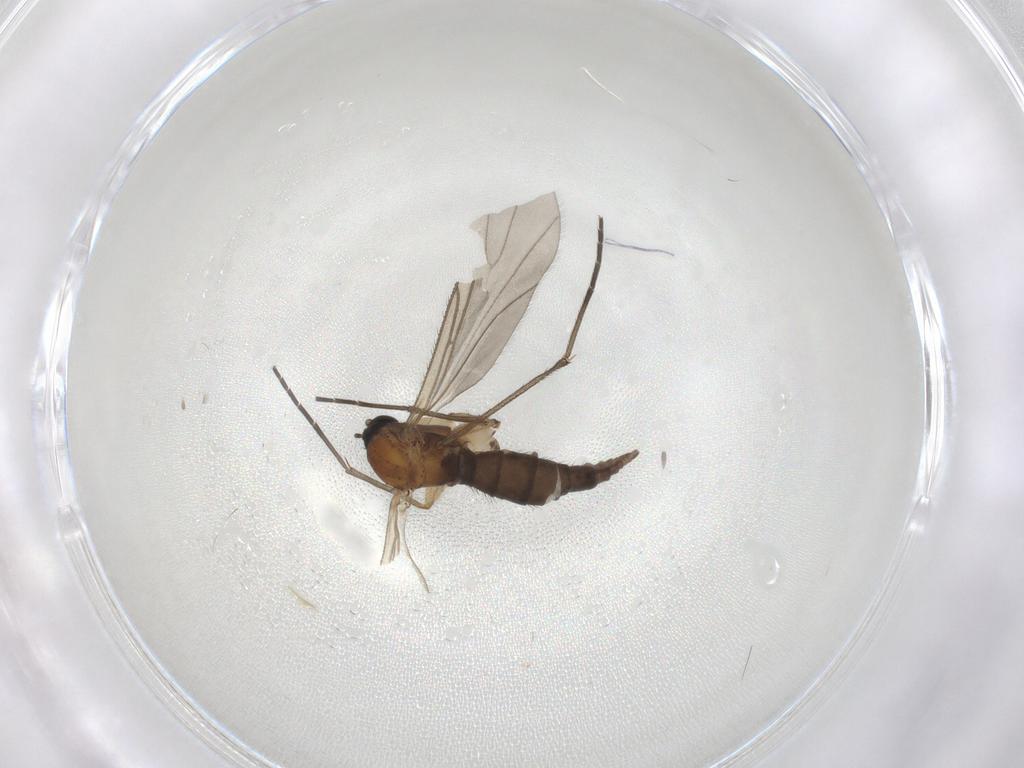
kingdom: Animalia
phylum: Arthropoda
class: Insecta
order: Diptera
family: Sciaridae
